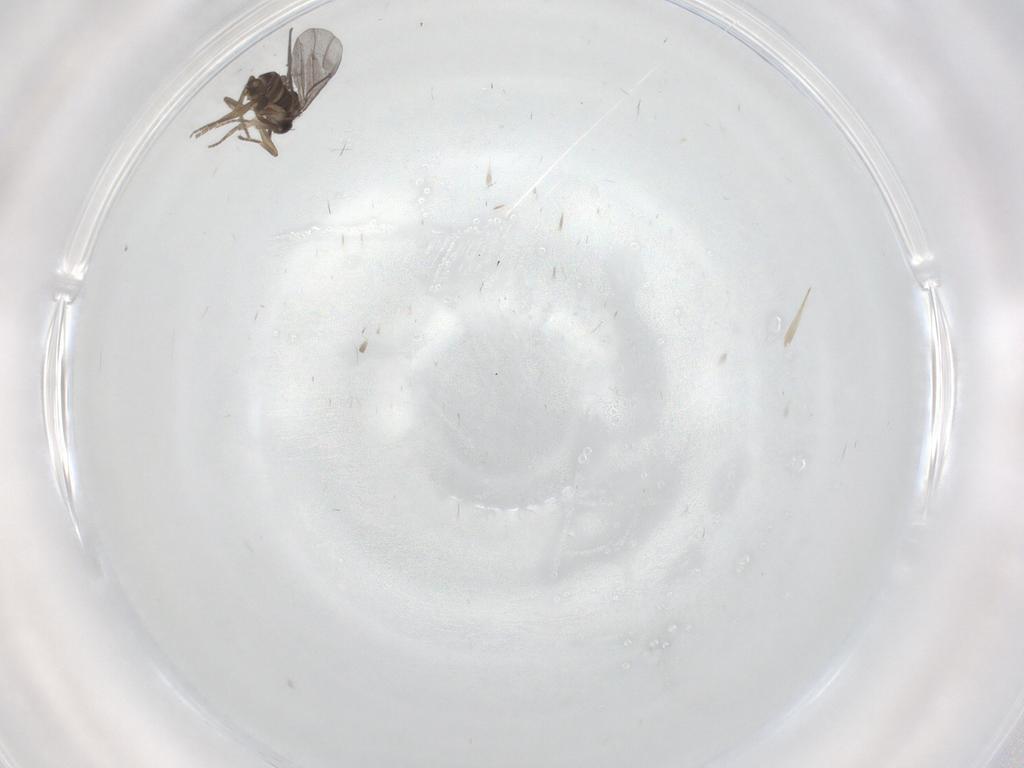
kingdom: Animalia
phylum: Arthropoda
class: Insecta
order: Diptera
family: Phoridae
